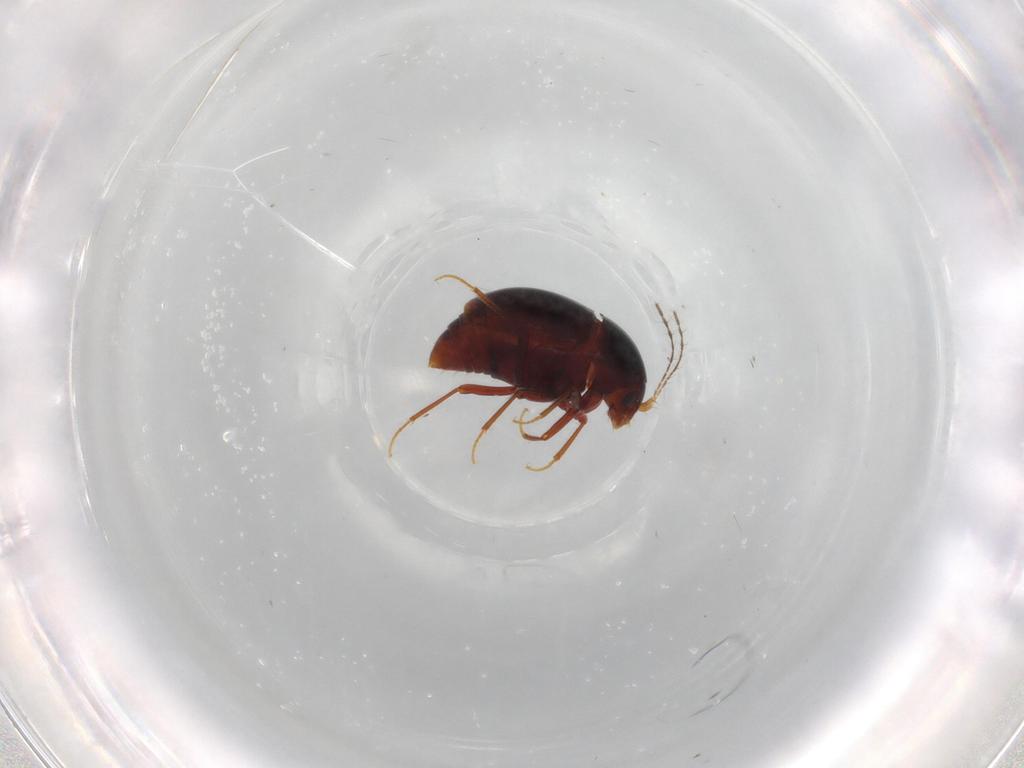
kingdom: Animalia
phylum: Arthropoda
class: Insecta
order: Coleoptera
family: Staphylinidae
